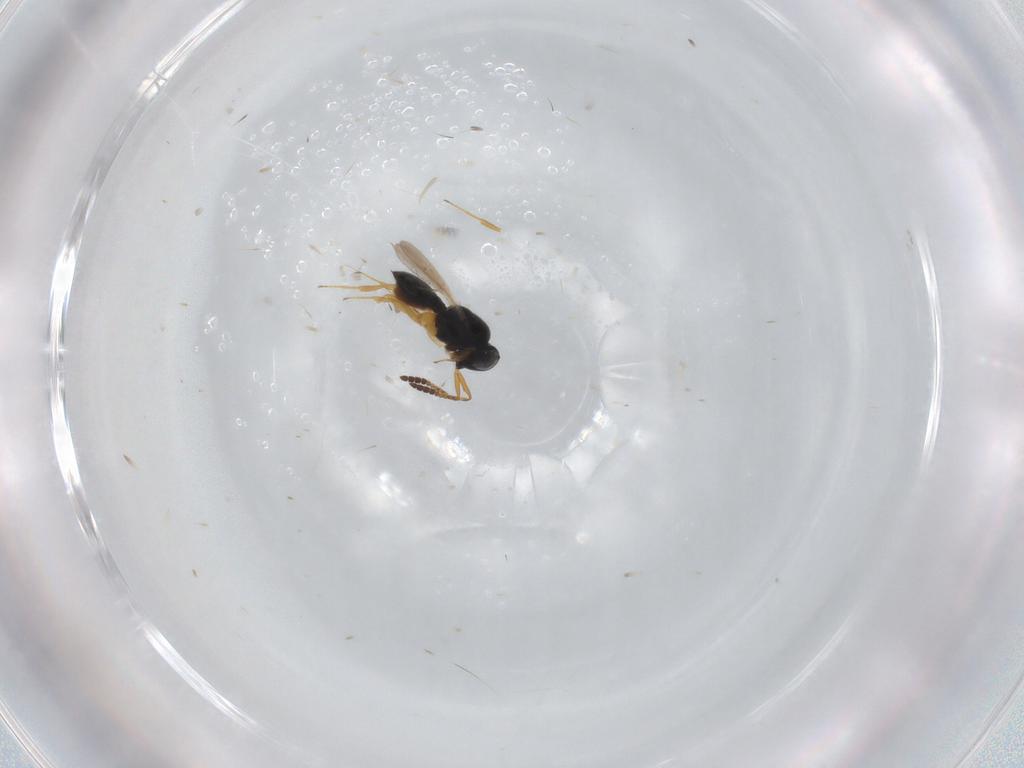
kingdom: Animalia
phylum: Arthropoda
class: Insecta
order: Hymenoptera
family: Scelionidae
